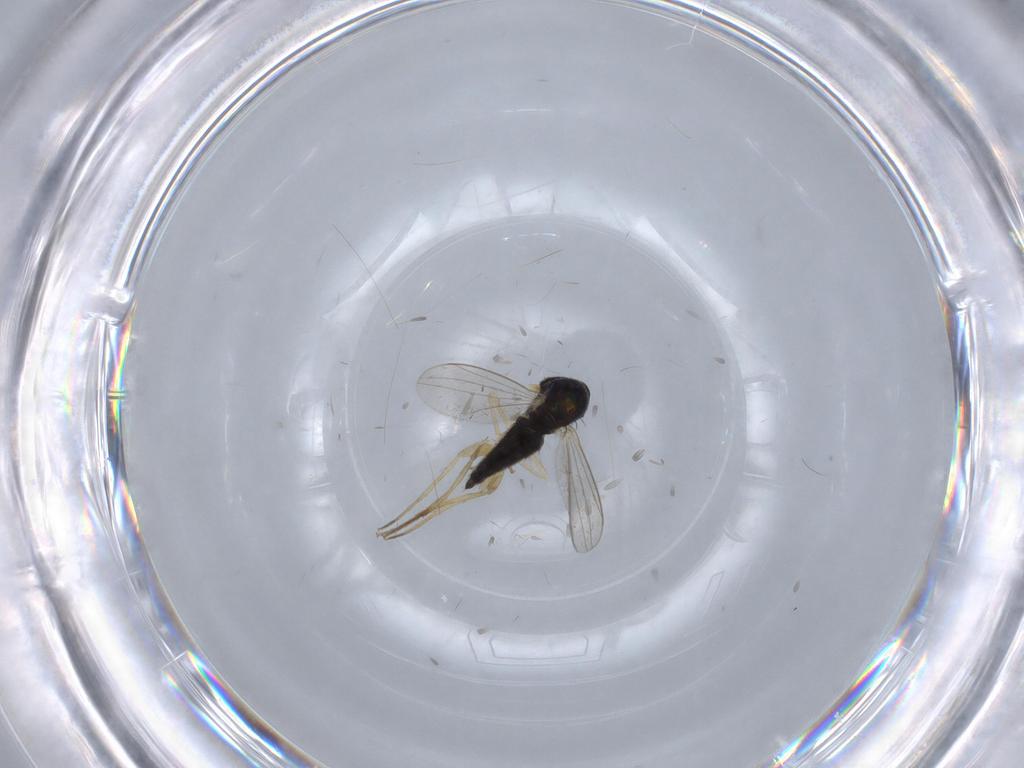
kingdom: Animalia
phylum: Arthropoda
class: Insecta
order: Diptera
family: Dolichopodidae
